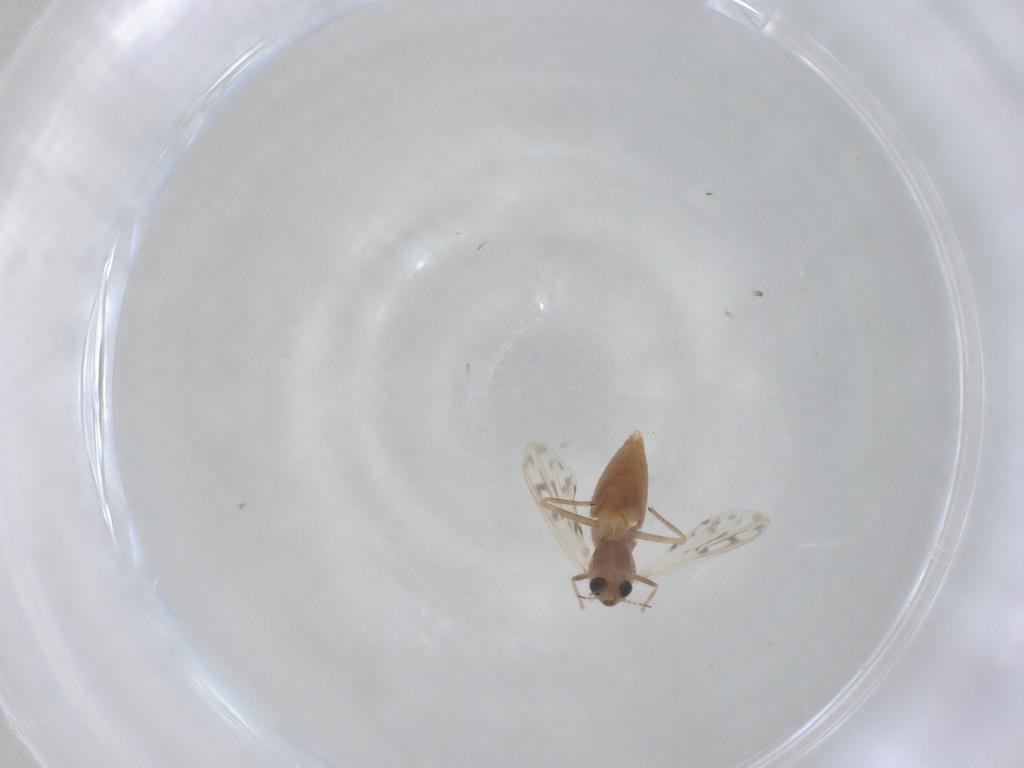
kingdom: Animalia
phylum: Arthropoda
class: Insecta
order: Diptera
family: Chironomidae
